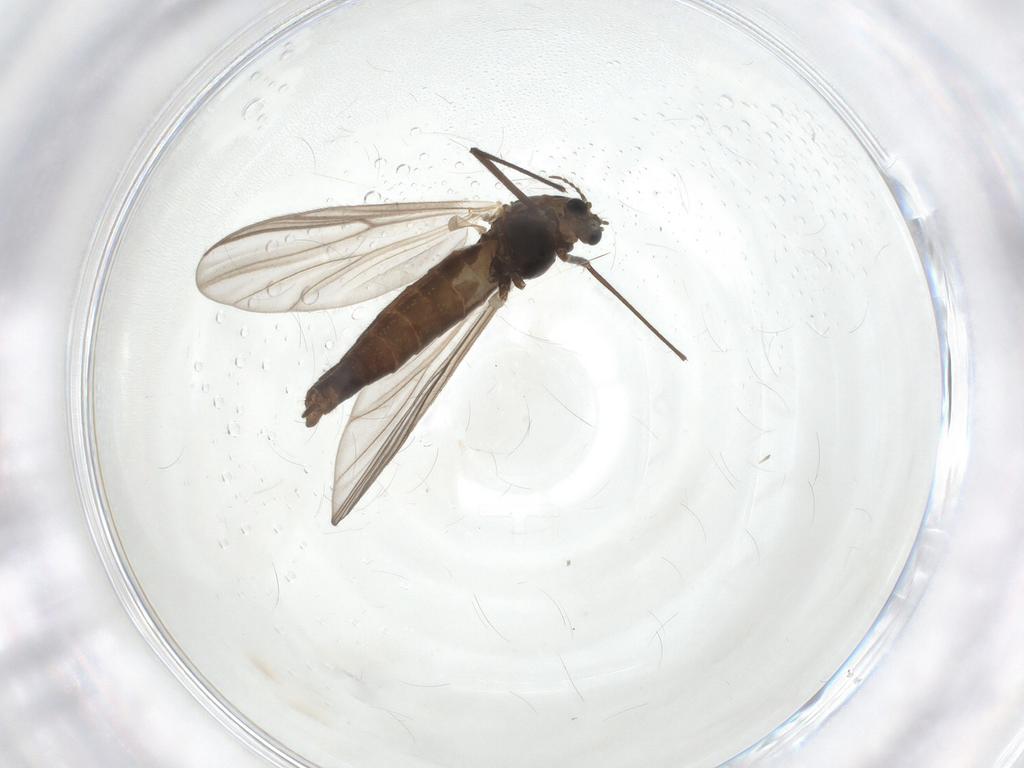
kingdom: Animalia
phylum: Arthropoda
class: Insecta
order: Diptera
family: Chironomidae
